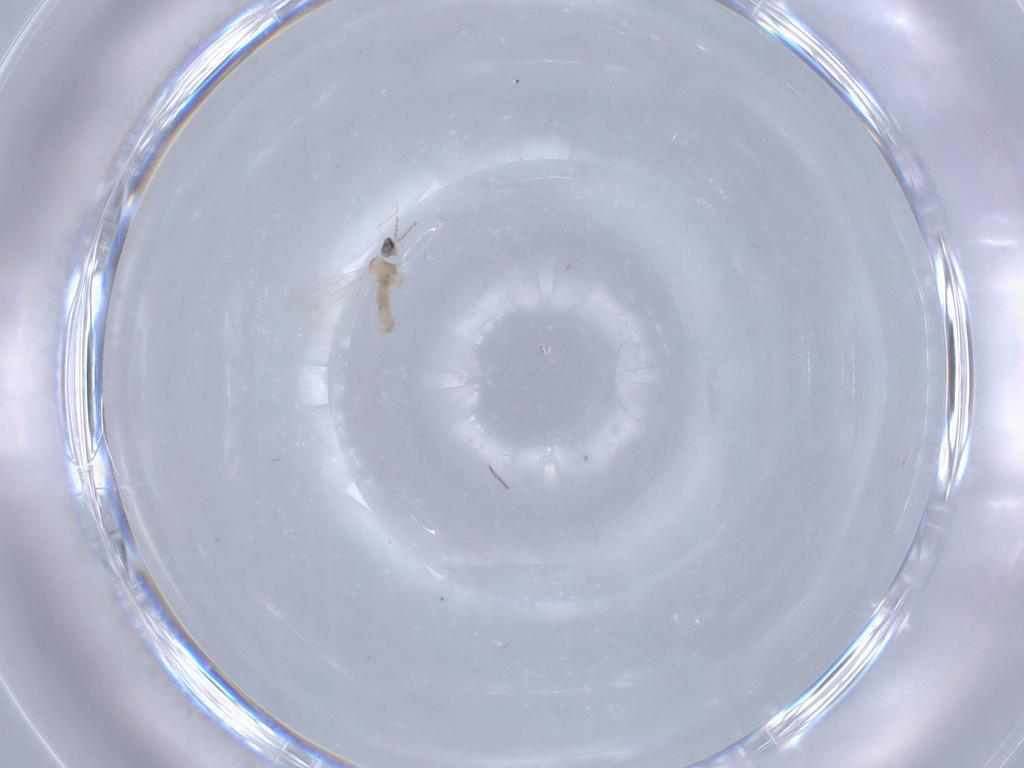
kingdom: Animalia
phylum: Arthropoda
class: Insecta
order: Diptera
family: Cecidomyiidae
